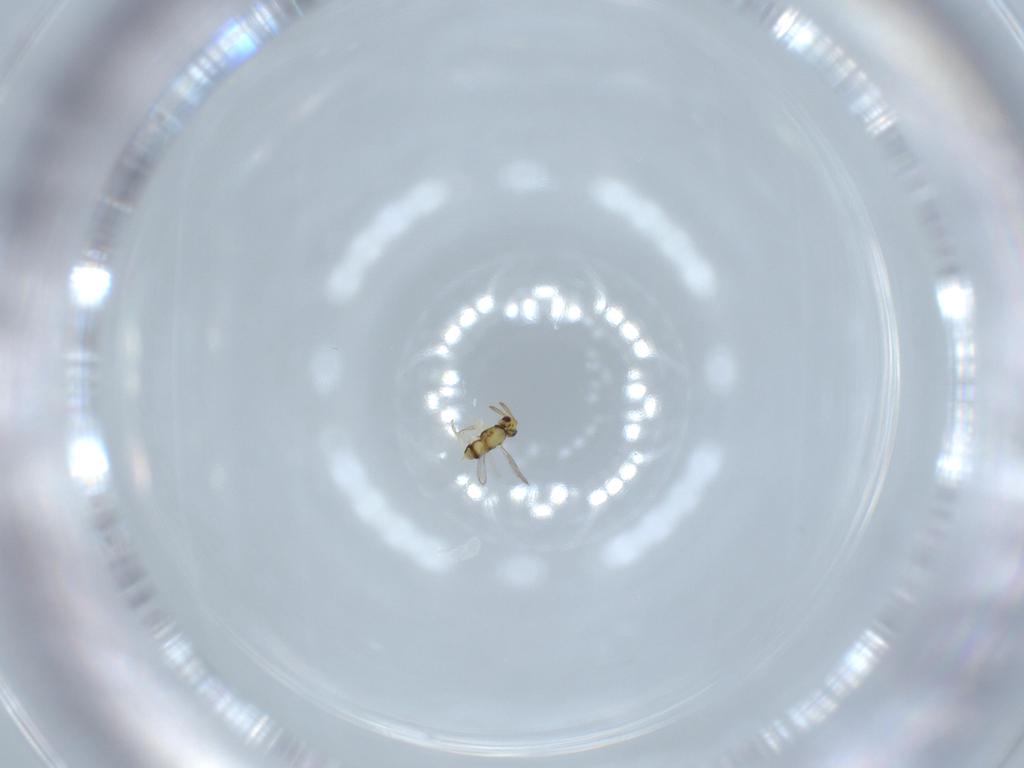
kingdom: Animalia
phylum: Arthropoda
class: Insecta
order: Hymenoptera
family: Aphelinidae
